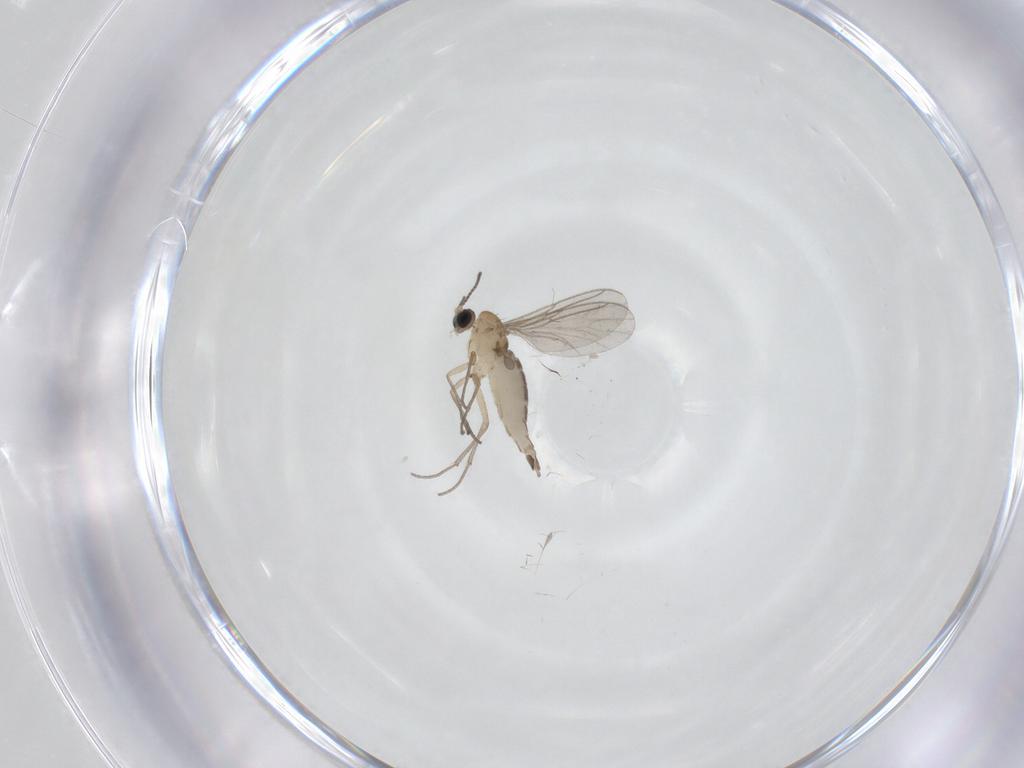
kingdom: Animalia
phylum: Arthropoda
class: Insecta
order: Diptera
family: Sciaridae
